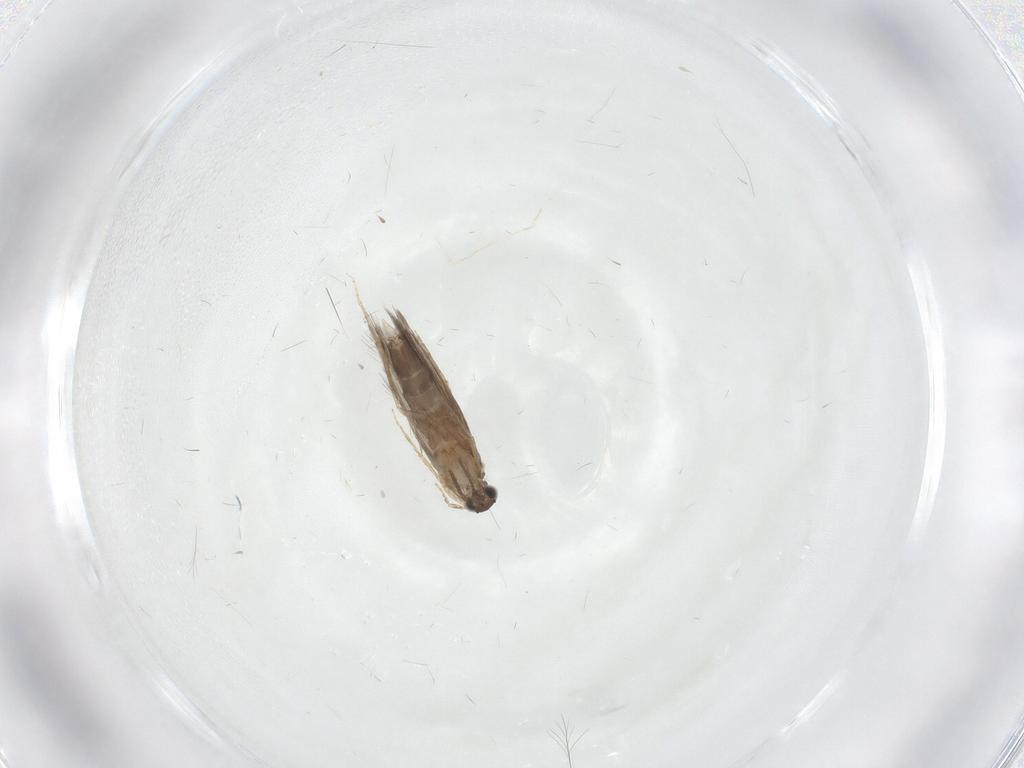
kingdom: Animalia
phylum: Arthropoda
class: Insecta
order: Trichoptera
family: Hydroptilidae
